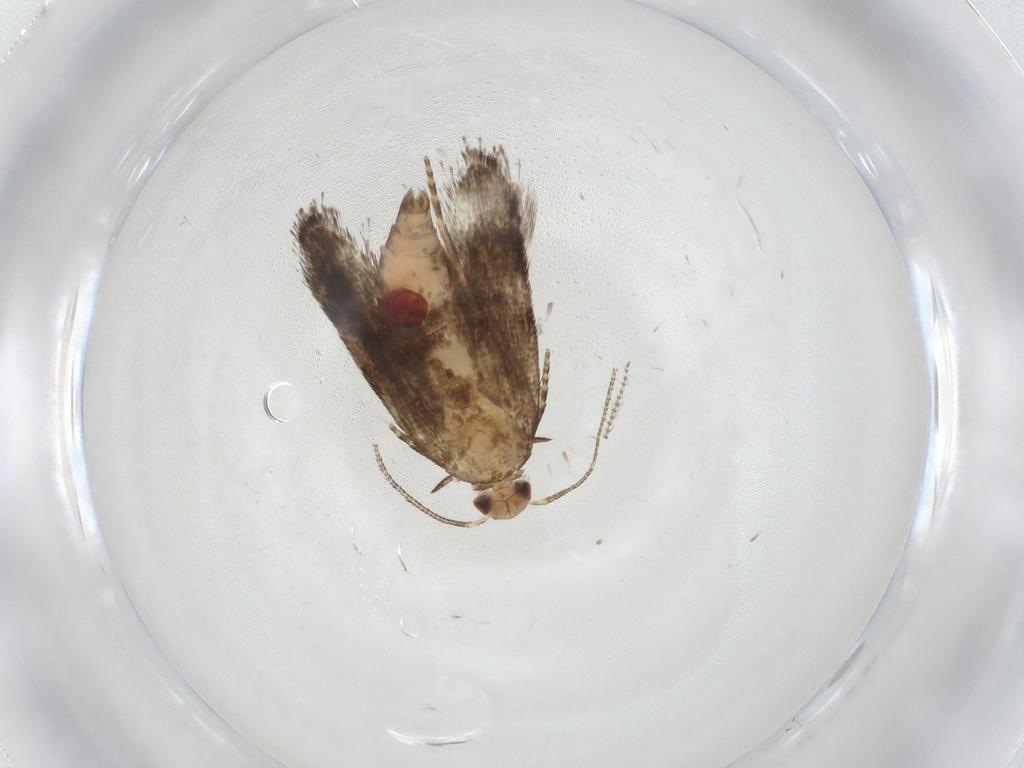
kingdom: Animalia
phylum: Arthropoda
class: Insecta
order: Lepidoptera
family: Gelechiidae
